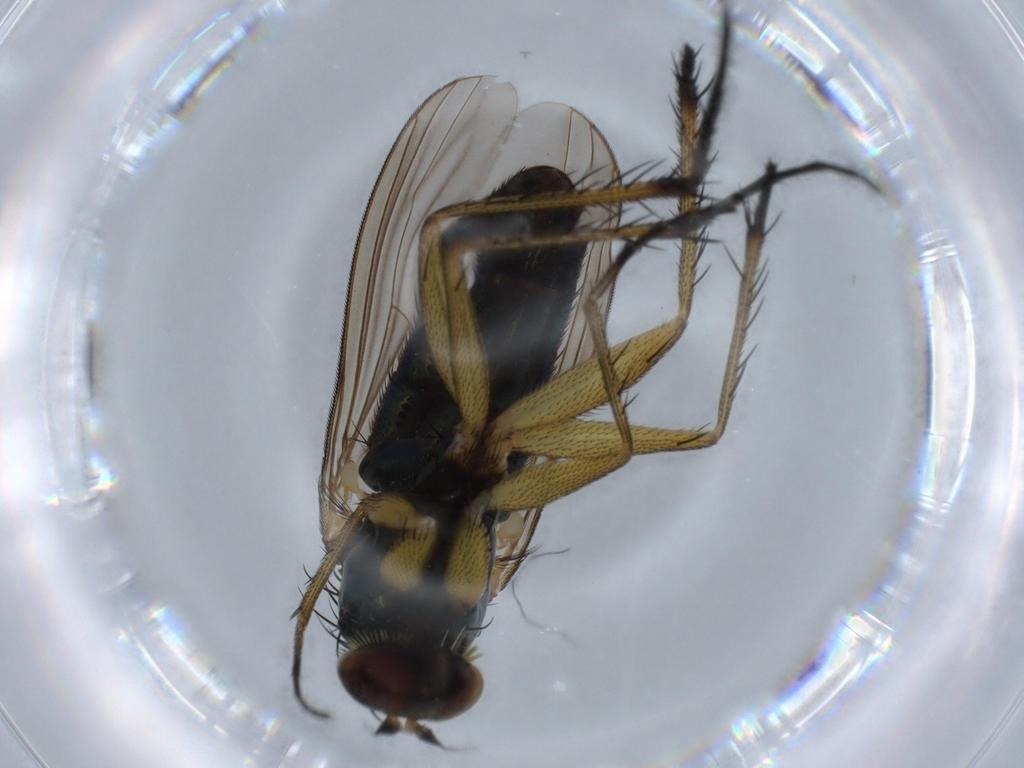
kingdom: Animalia
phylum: Arthropoda
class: Insecta
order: Diptera
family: Dolichopodidae
